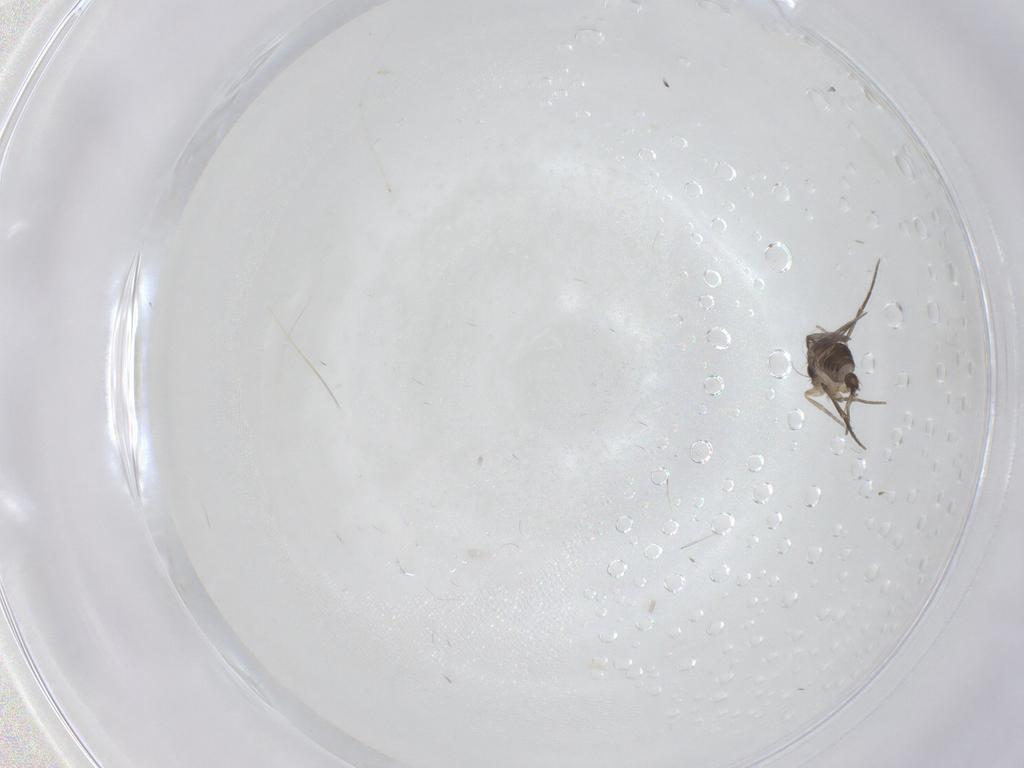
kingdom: Animalia
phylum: Arthropoda
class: Insecta
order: Diptera
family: Phoridae
